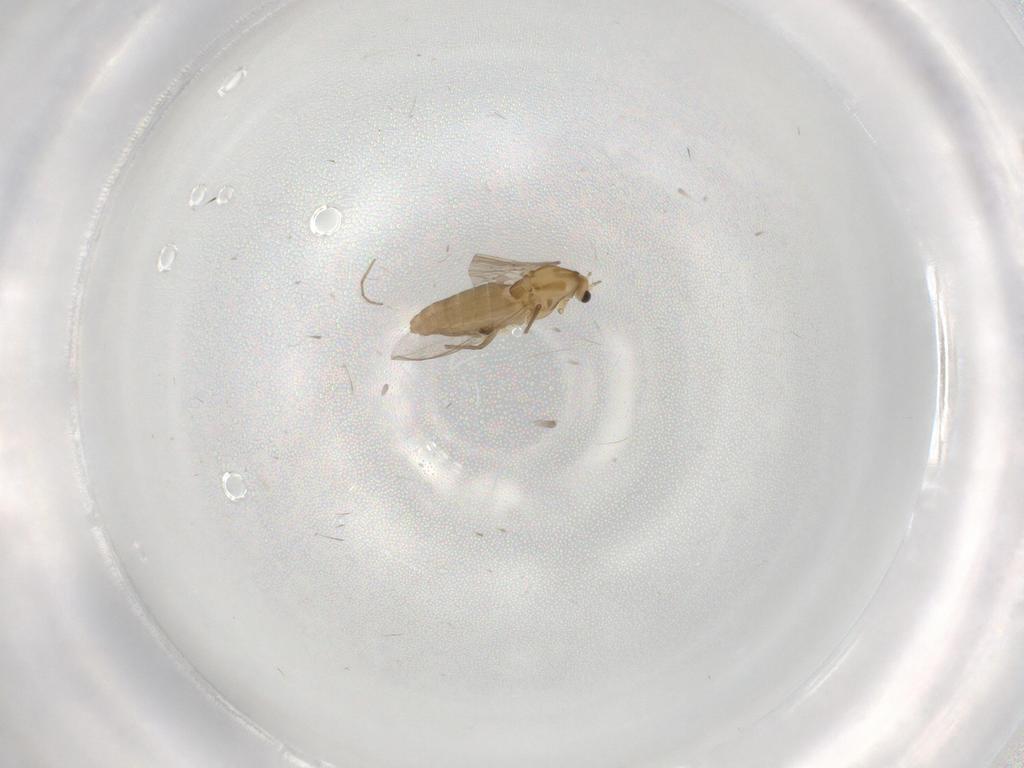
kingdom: Animalia
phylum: Arthropoda
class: Insecta
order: Diptera
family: Chironomidae
